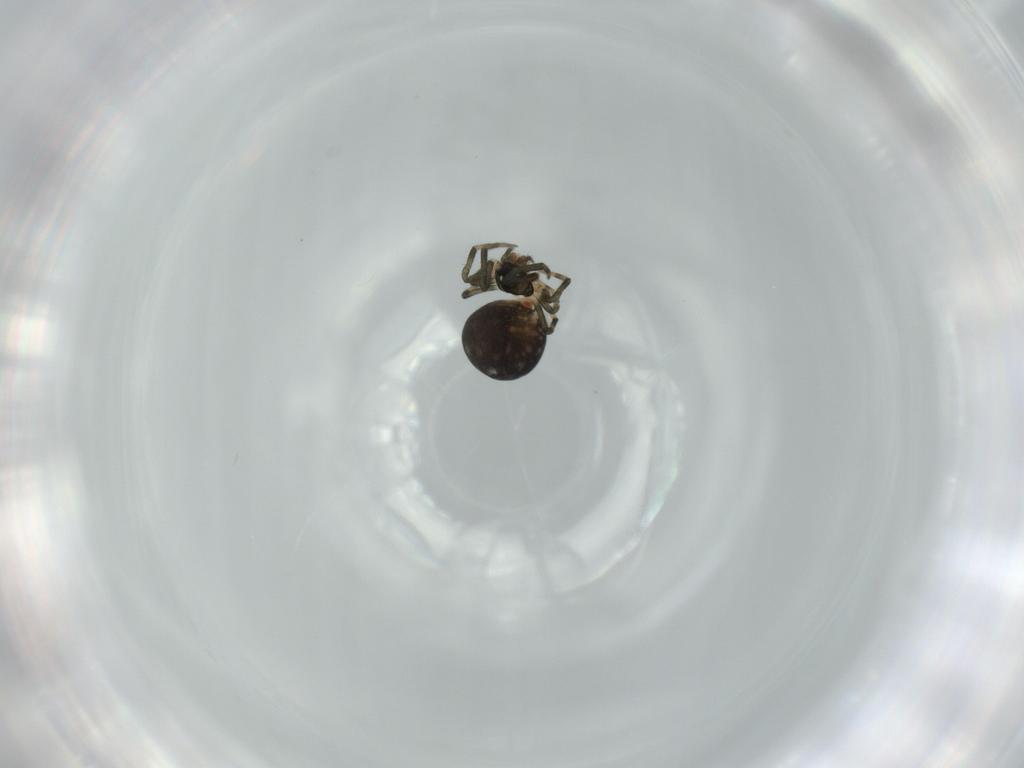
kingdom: Animalia
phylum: Arthropoda
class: Arachnida
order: Araneae
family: Mysmenidae
